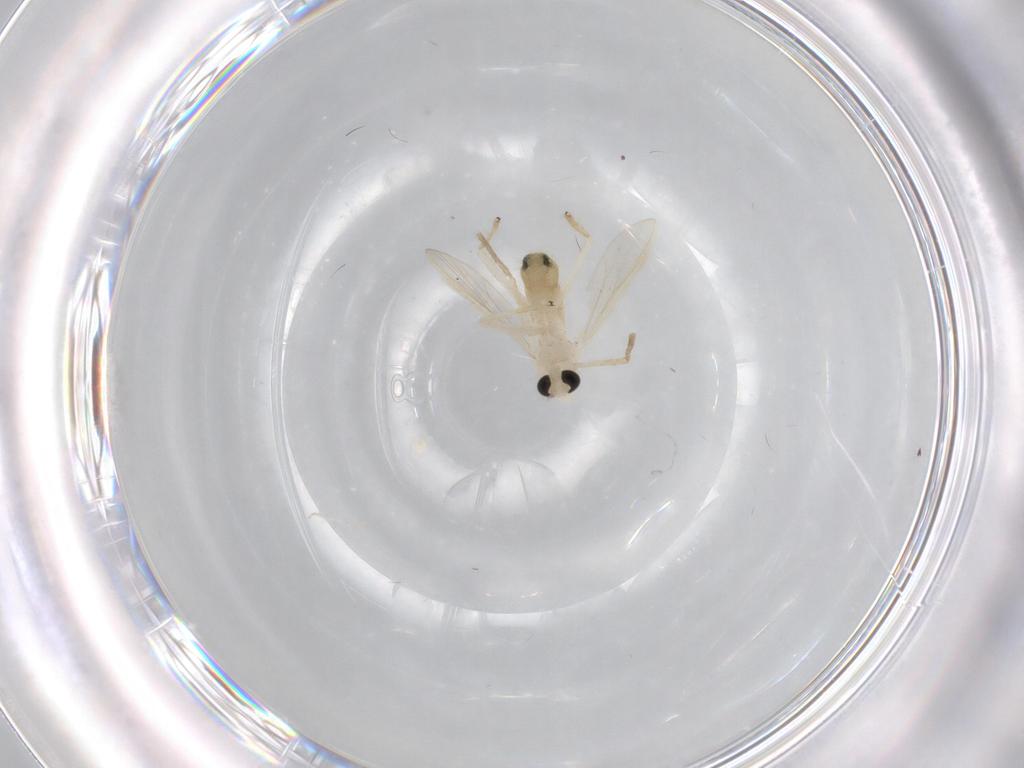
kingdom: Animalia
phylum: Arthropoda
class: Insecta
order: Diptera
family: Chironomidae
